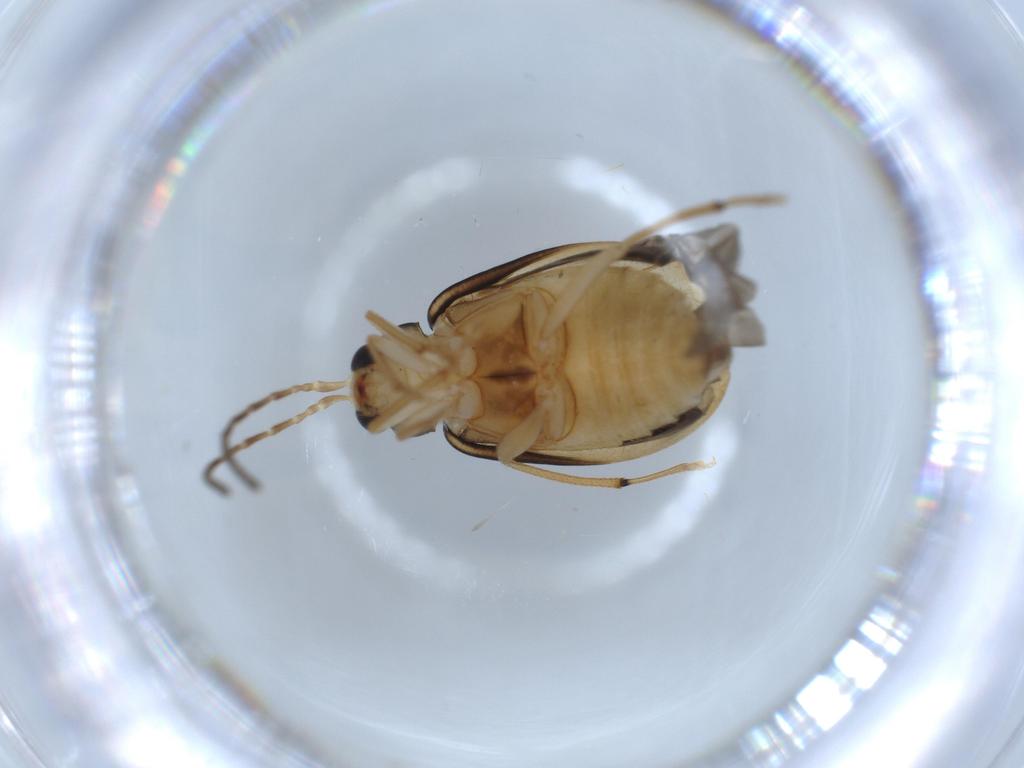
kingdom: Animalia
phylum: Arthropoda
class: Insecta
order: Coleoptera
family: Chrysomelidae
